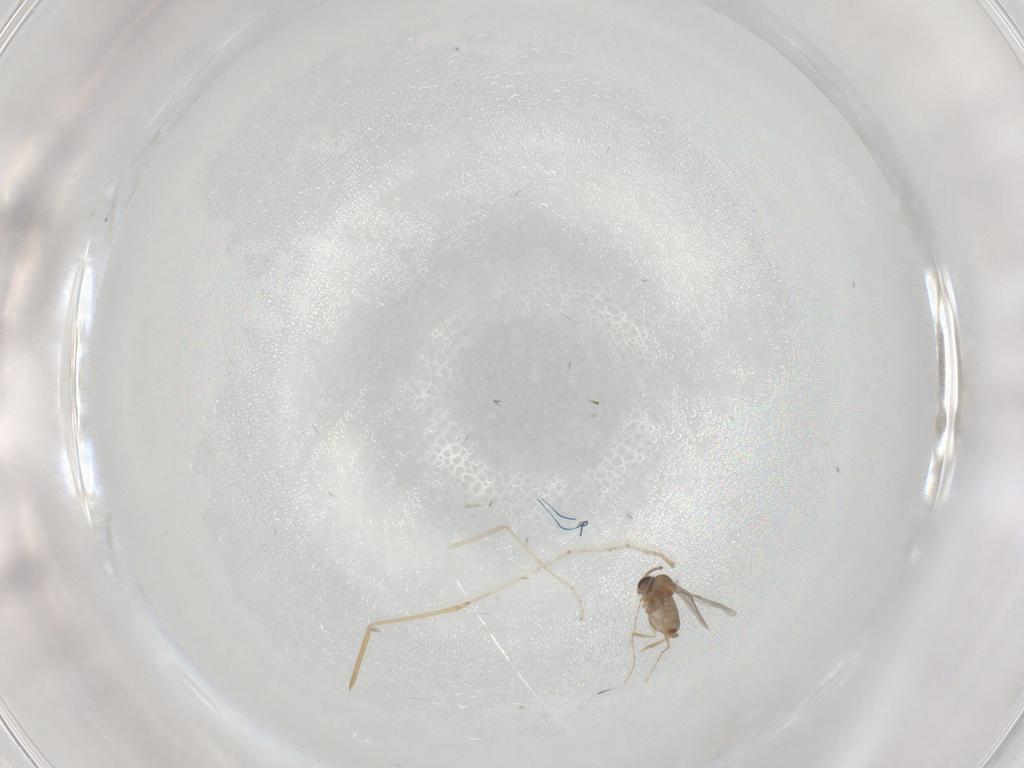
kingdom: Animalia
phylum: Arthropoda
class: Insecta
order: Diptera
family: Cecidomyiidae
